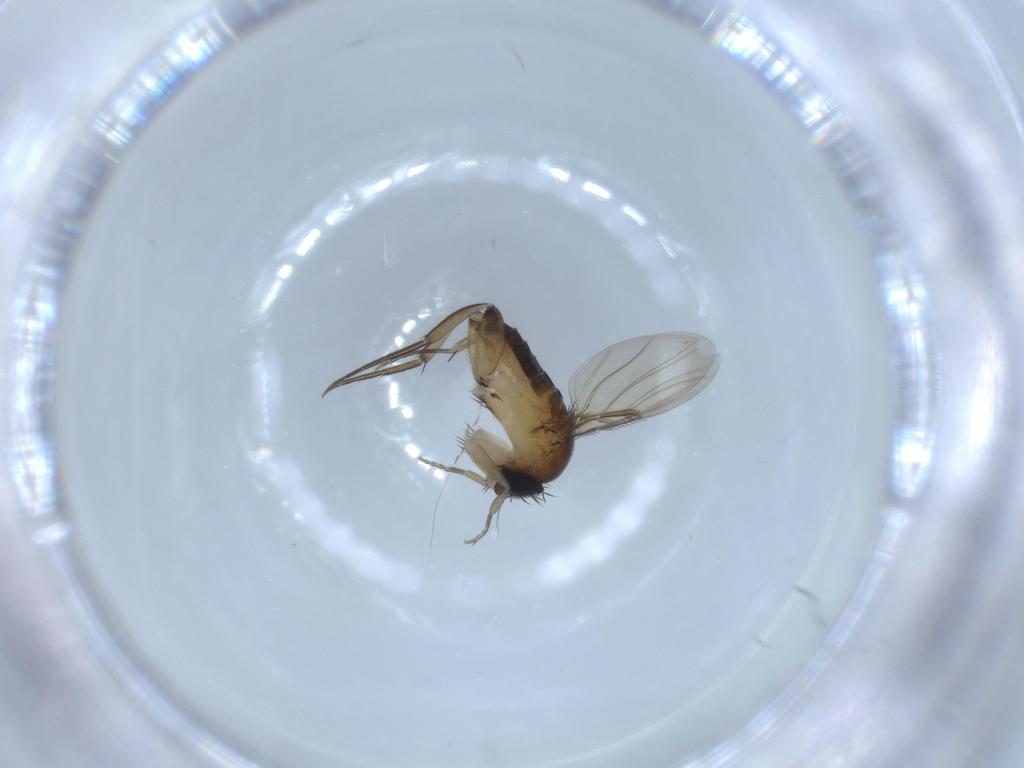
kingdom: Animalia
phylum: Arthropoda
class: Insecta
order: Diptera
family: Phoridae
